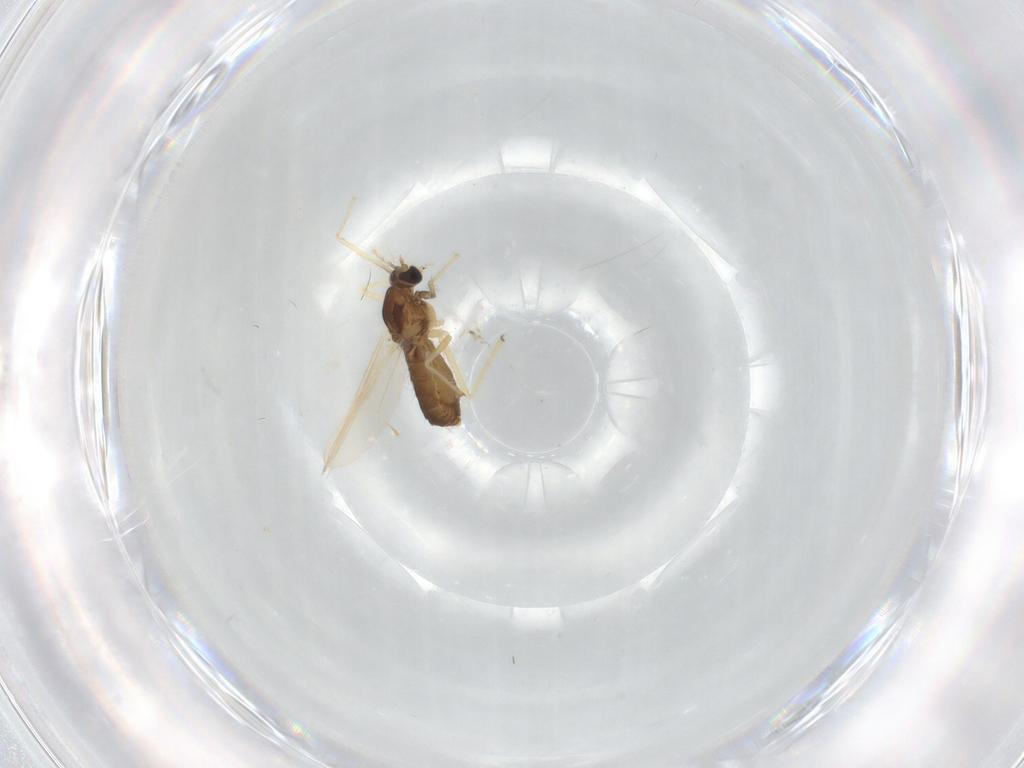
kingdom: Animalia
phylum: Arthropoda
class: Insecta
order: Diptera
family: Chironomidae
